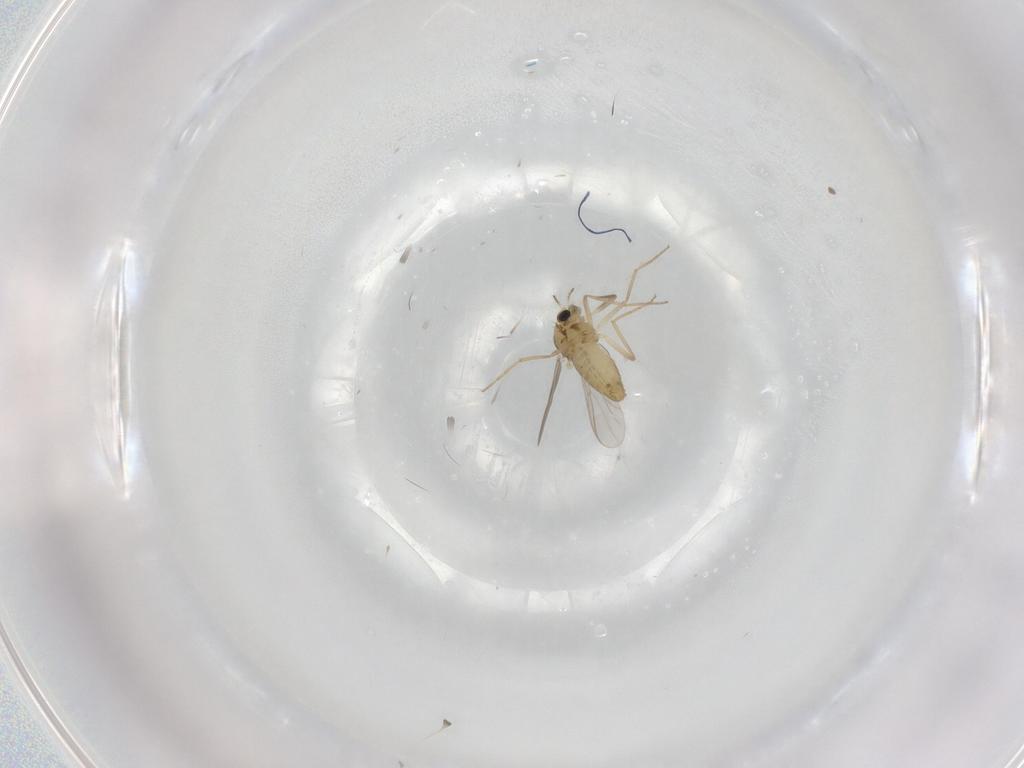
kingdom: Animalia
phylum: Arthropoda
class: Insecta
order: Diptera
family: Chironomidae
